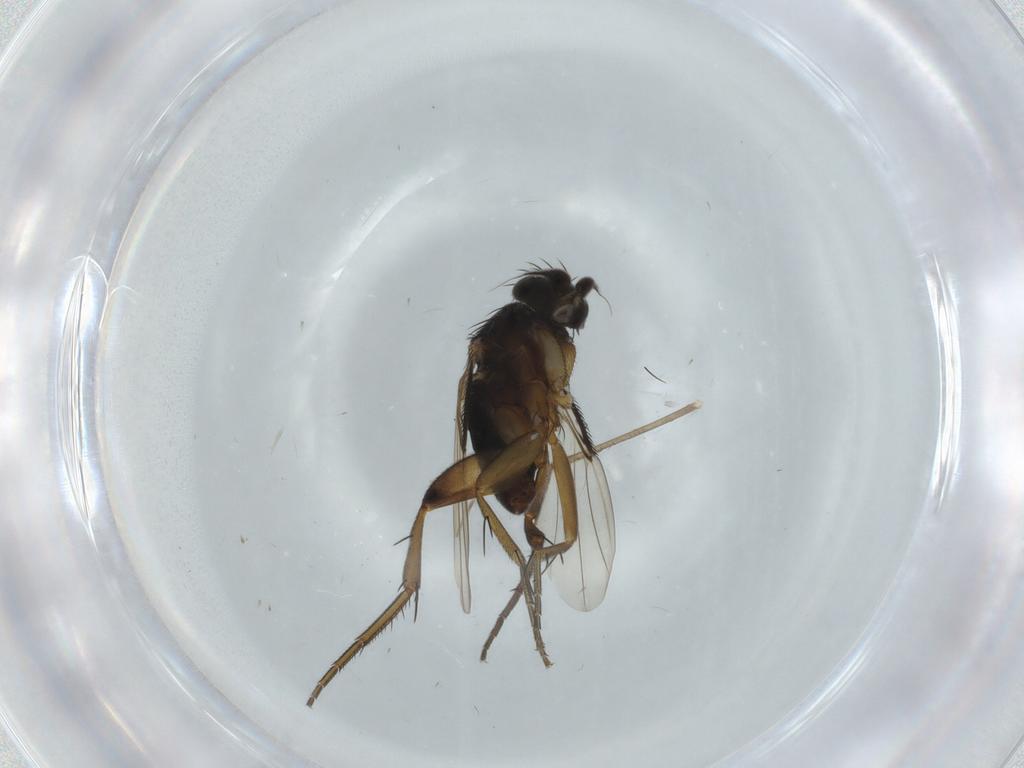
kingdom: Animalia
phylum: Arthropoda
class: Insecta
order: Diptera
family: Phoridae
